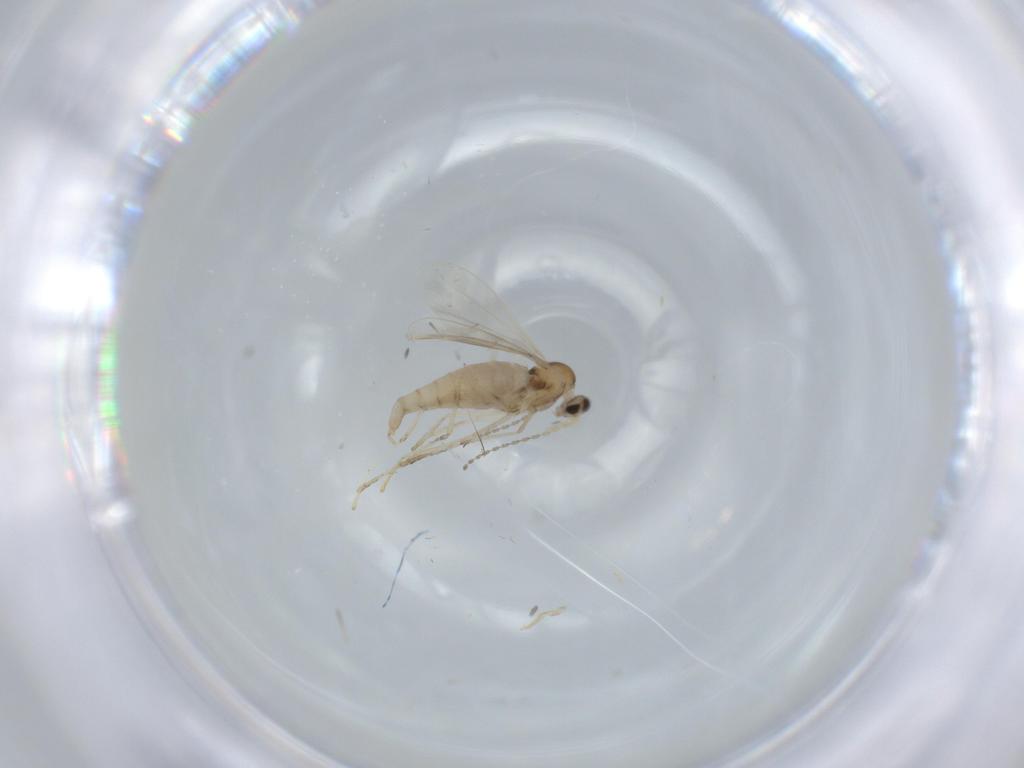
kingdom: Animalia
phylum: Arthropoda
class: Insecta
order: Diptera
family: Cecidomyiidae
